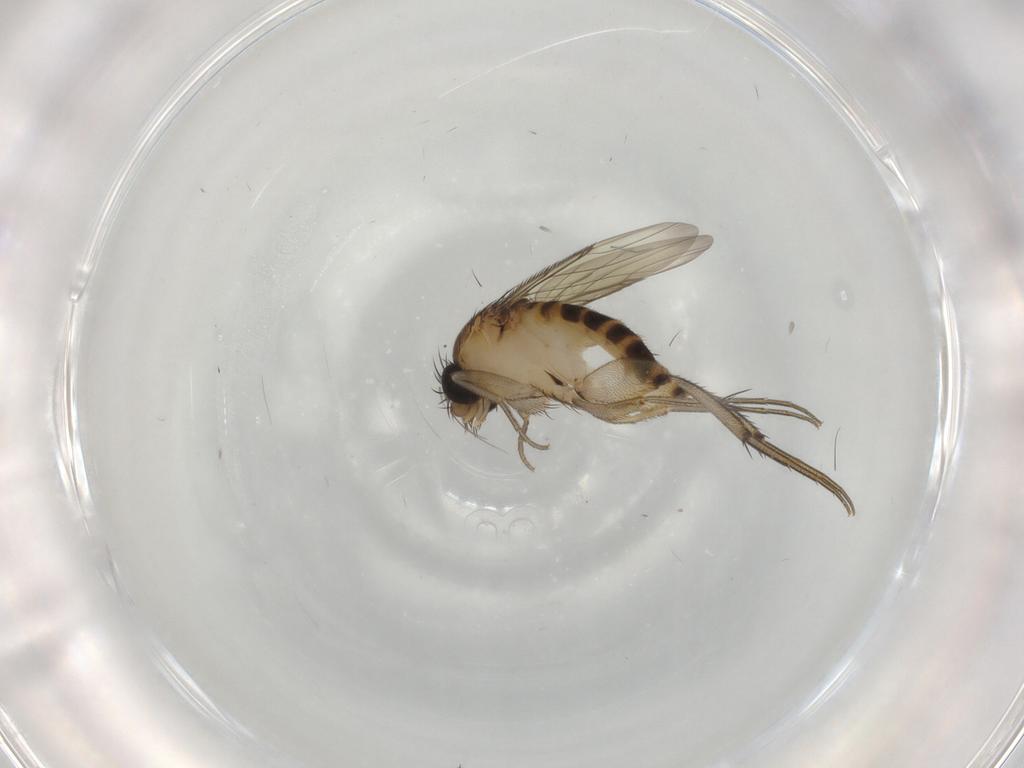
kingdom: Animalia
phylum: Arthropoda
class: Insecta
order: Diptera
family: Phoridae
